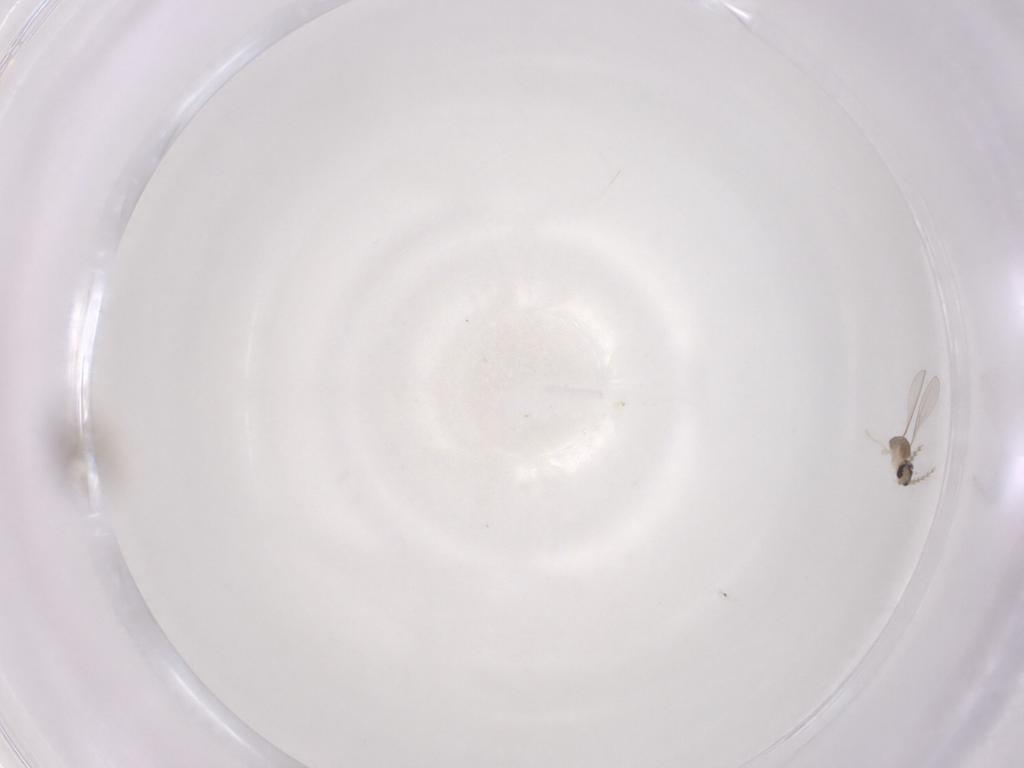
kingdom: Animalia
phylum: Arthropoda
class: Insecta
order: Diptera
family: Cecidomyiidae
